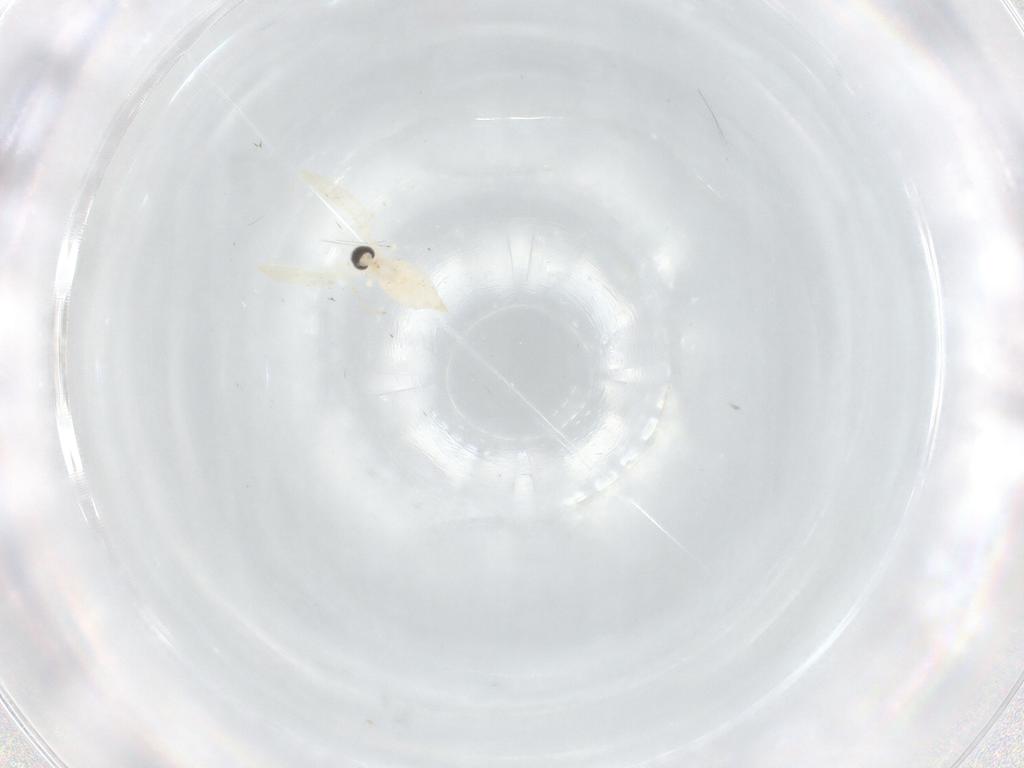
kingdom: Animalia
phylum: Arthropoda
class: Insecta
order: Diptera
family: Cecidomyiidae
